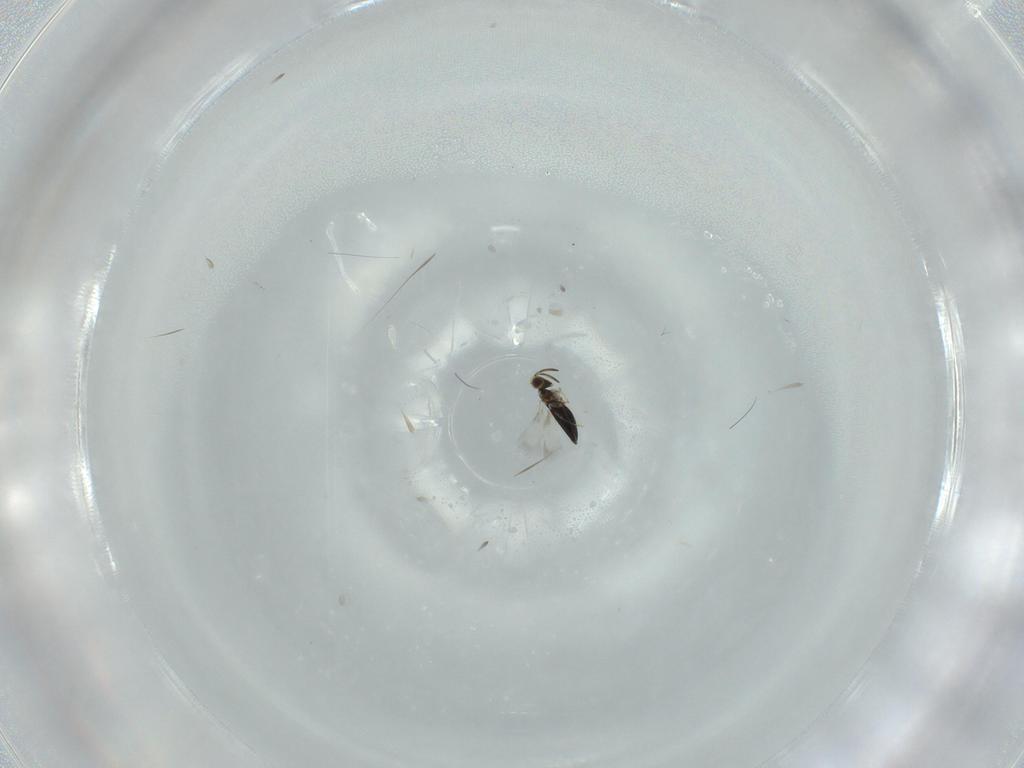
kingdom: Animalia
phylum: Arthropoda
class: Insecta
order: Hymenoptera
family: Signiphoridae
